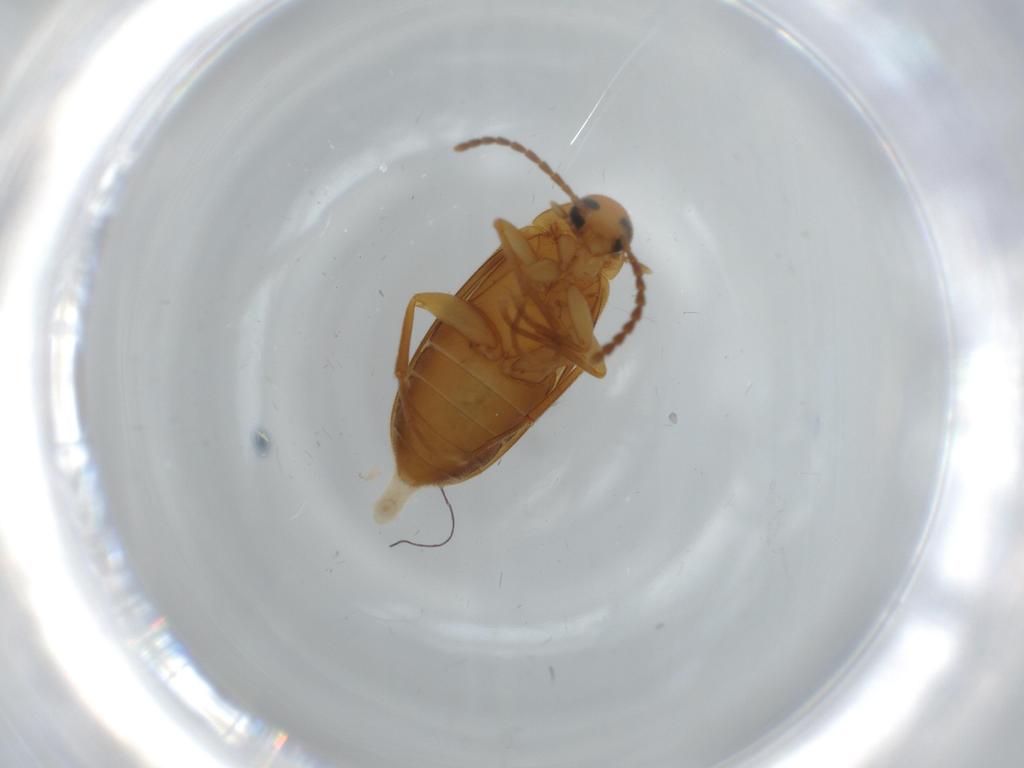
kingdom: Animalia
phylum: Arthropoda
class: Insecta
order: Coleoptera
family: Scraptiidae
